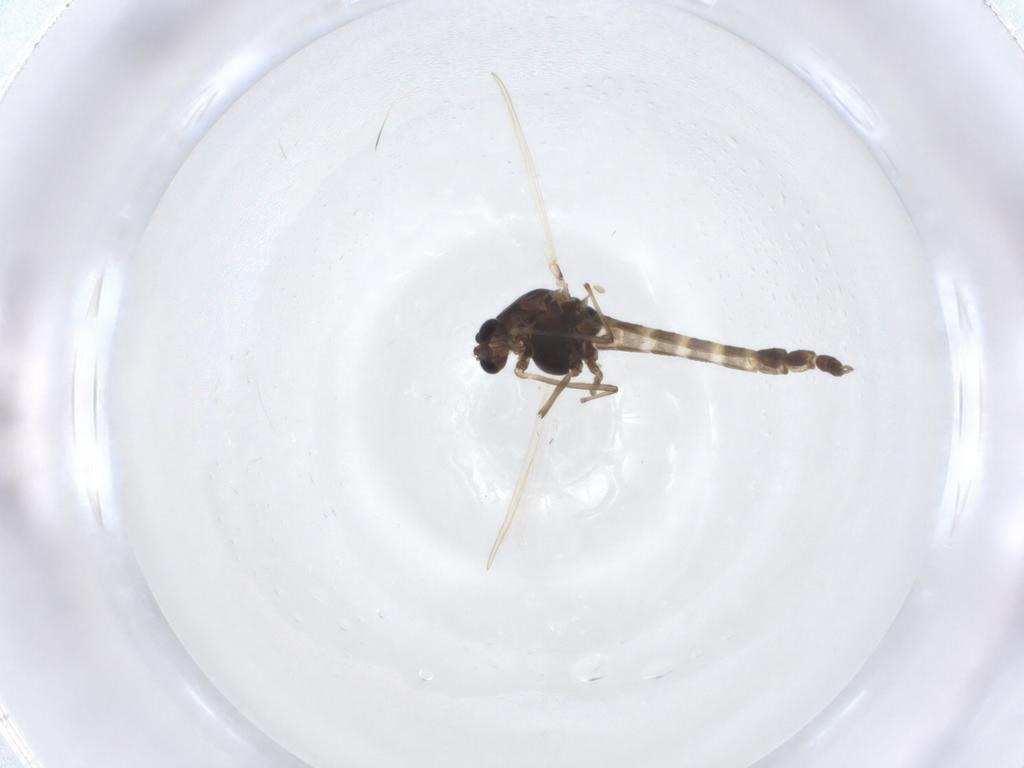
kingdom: Animalia
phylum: Arthropoda
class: Insecta
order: Diptera
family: Chironomidae
